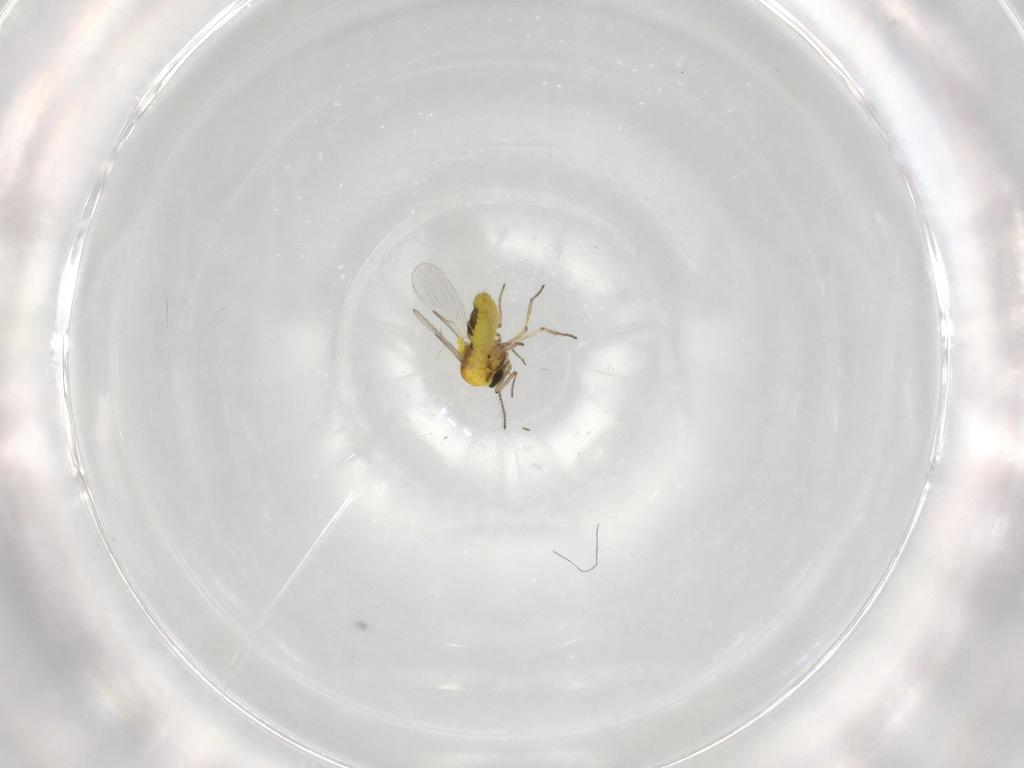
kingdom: Animalia
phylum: Arthropoda
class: Insecta
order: Diptera
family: Ceratopogonidae
